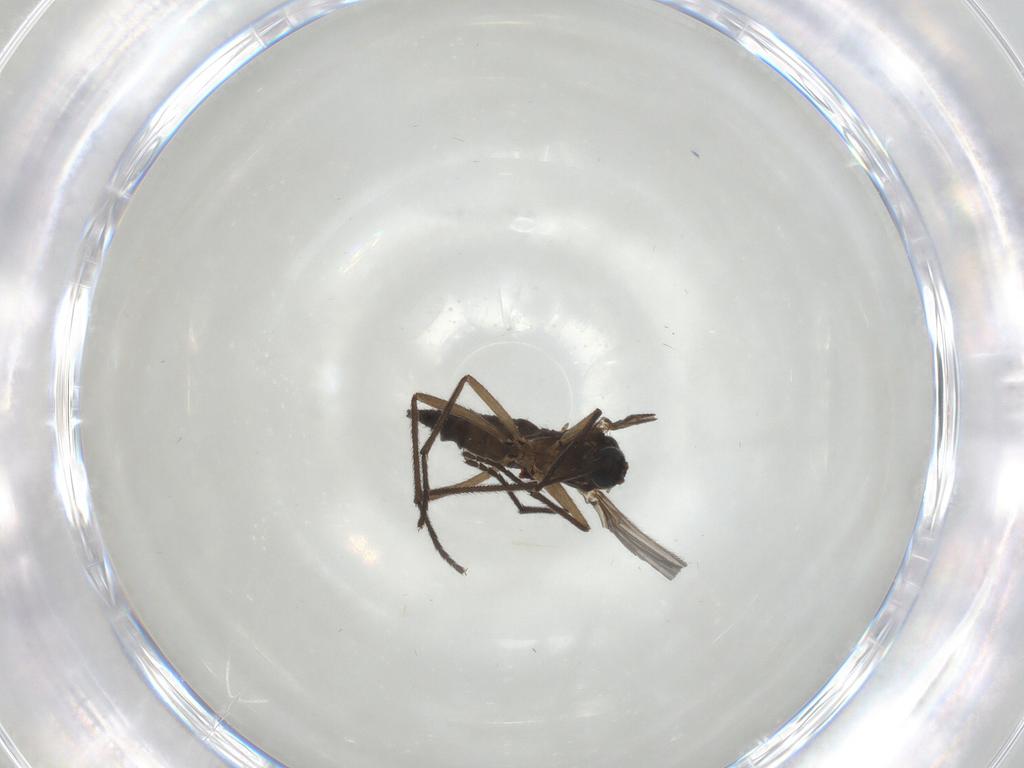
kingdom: Animalia
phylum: Arthropoda
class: Insecta
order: Diptera
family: Sciaridae
